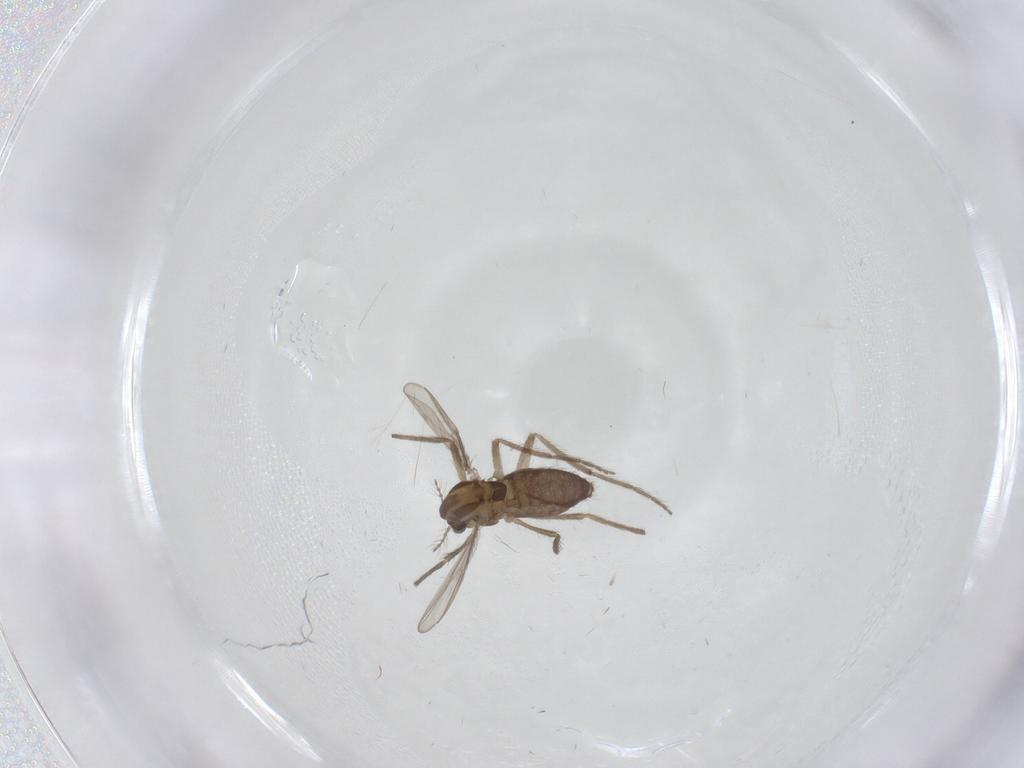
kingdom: Animalia
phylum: Arthropoda
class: Insecta
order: Diptera
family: Chironomidae
